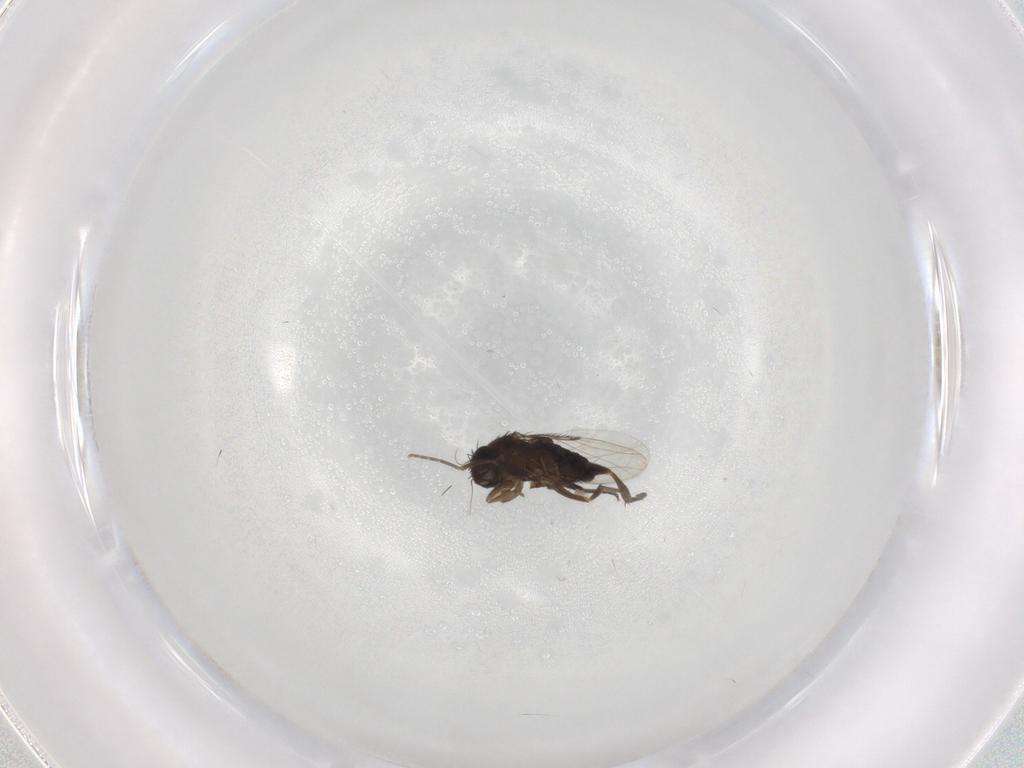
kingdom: Animalia
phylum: Arthropoda
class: Insecta
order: Diptera
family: Phoridae
